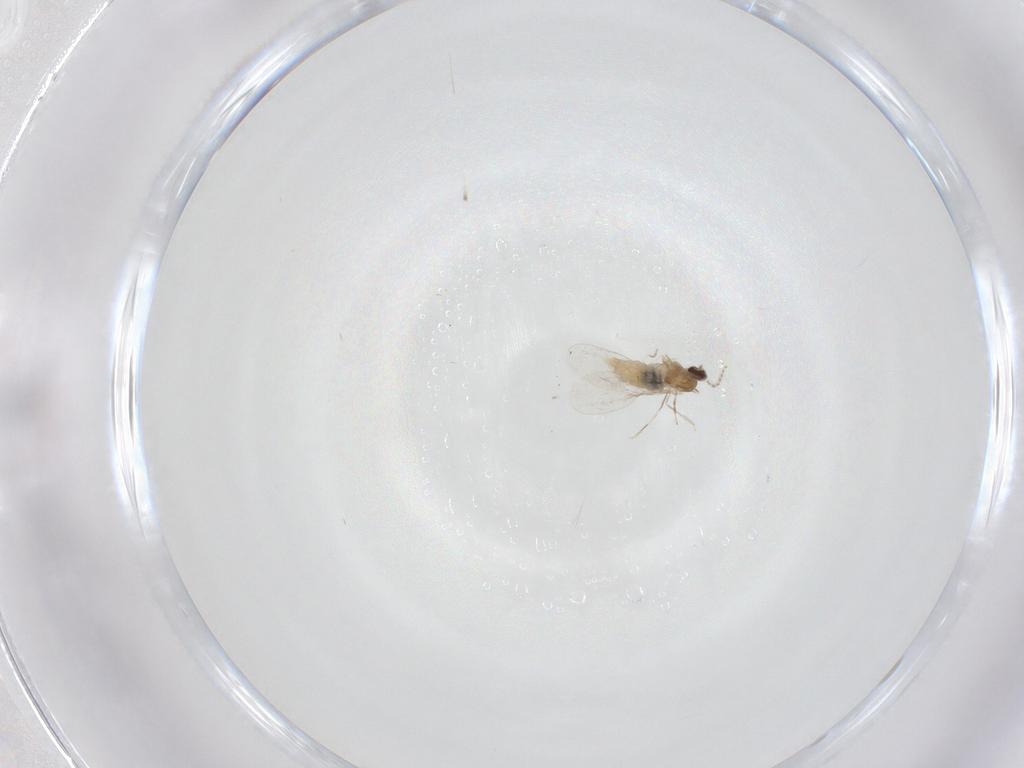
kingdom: Animalia
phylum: Arthropoda
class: Insecta
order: Diptera
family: Cecidomyiidae
